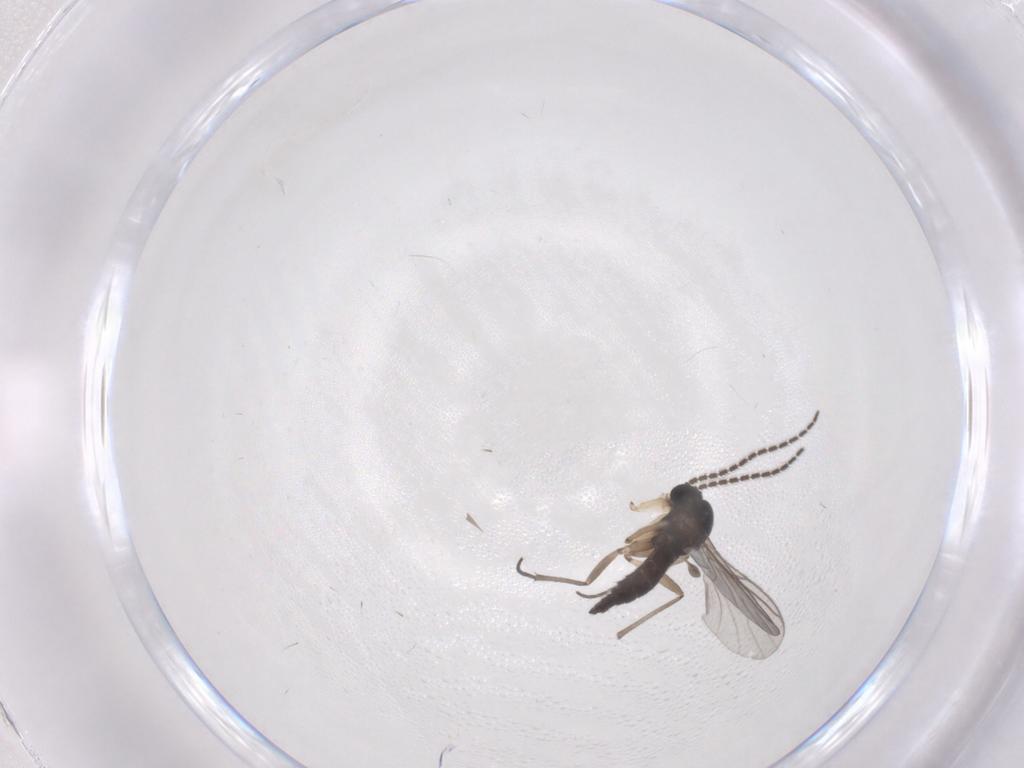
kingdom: Animalia
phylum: Arthropoda
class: Insecta
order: Diptera
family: Sciaridae
